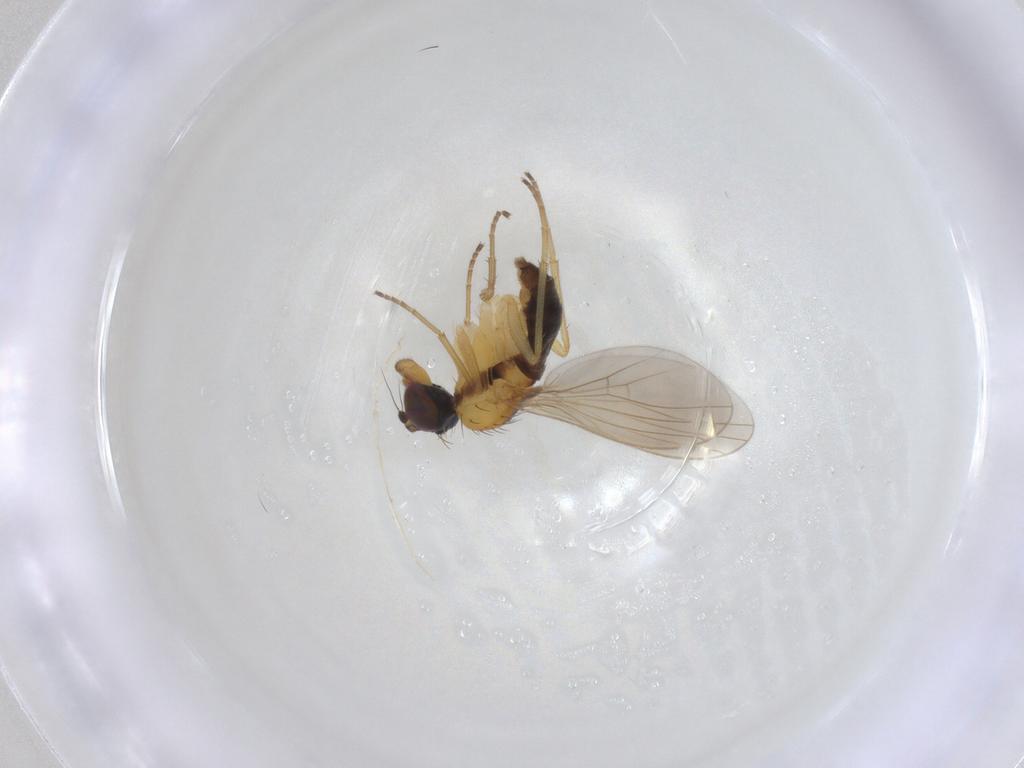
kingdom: Animalia
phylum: Arthropoda
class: Insecta
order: Diptera
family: Dolichopodidae
